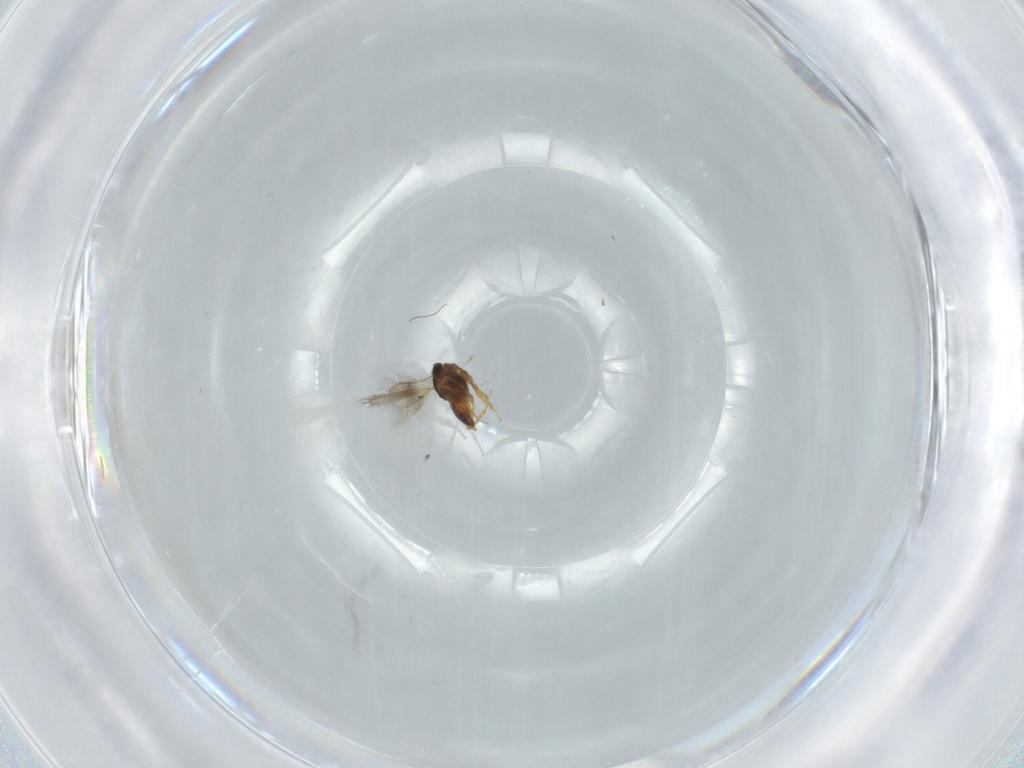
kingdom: Animalia
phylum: Arthropoda
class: Insecta
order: Hymenoptera
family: Scelionidae
